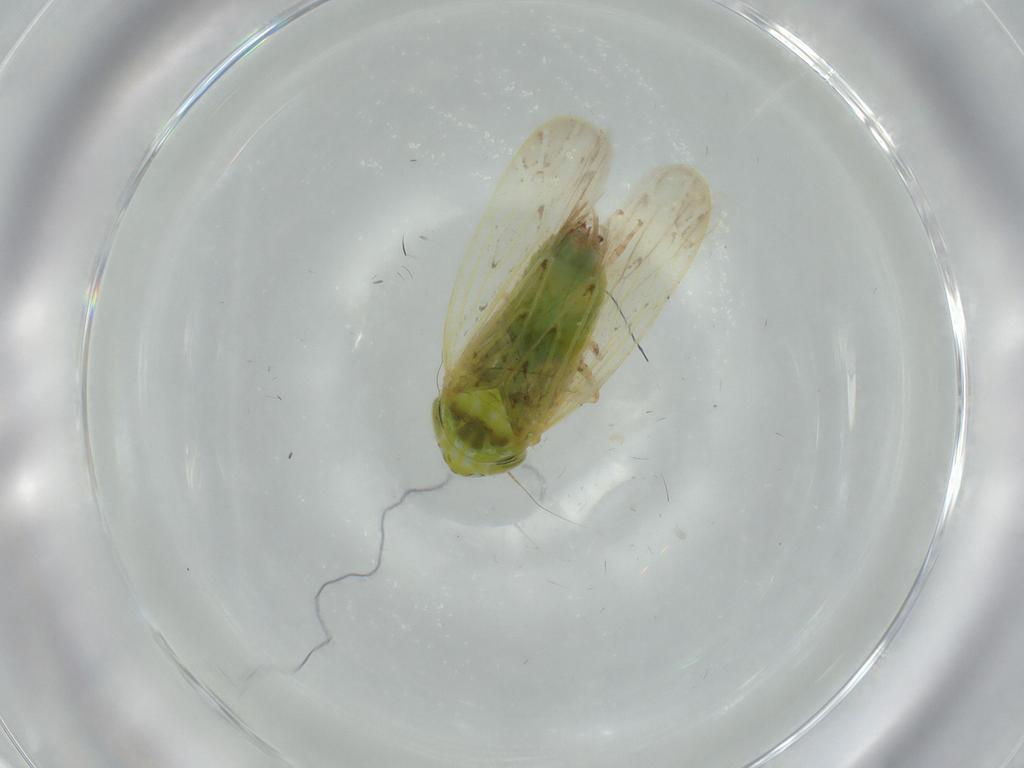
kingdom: Animalia
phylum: Arthropoda
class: Insecta
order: Hemiptera
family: Cicadellidae
